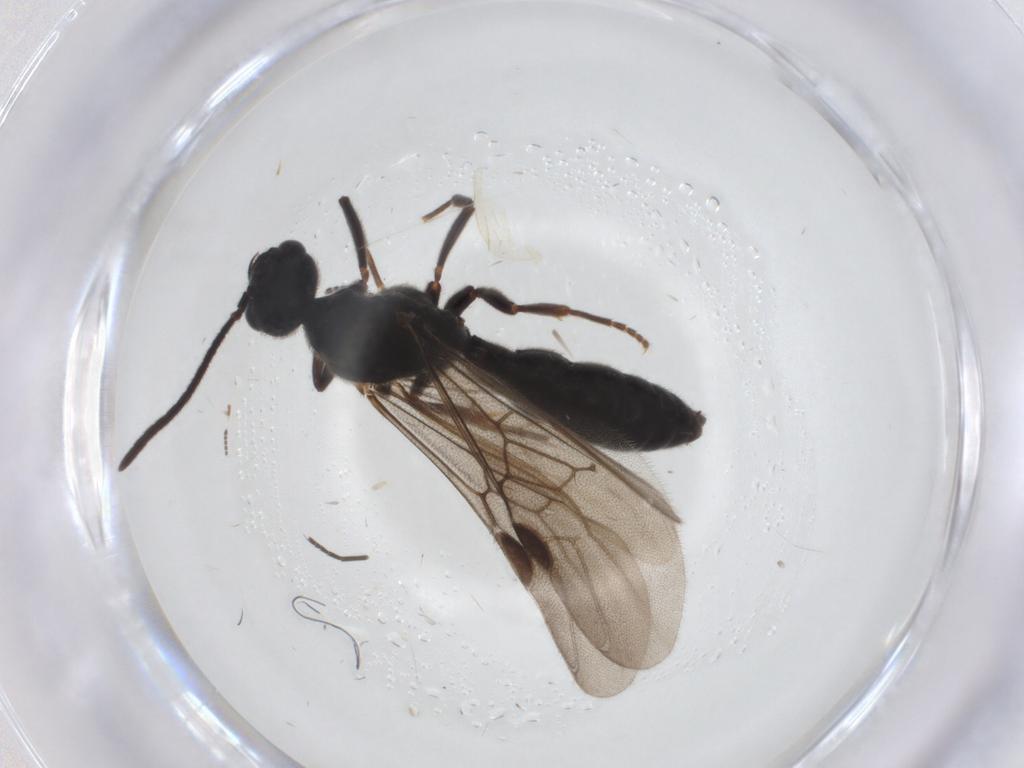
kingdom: Animalia
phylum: Arthropoda
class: Insecta
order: Hymenoptera
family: Formicidae
